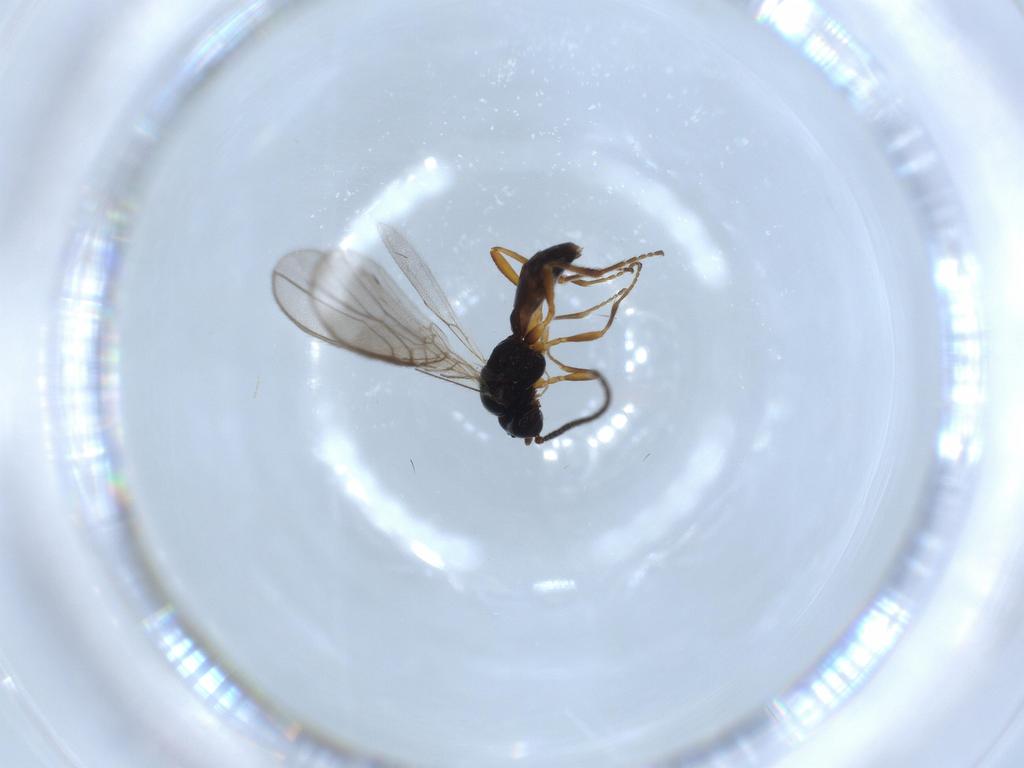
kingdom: Animalia
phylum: Arthropoda
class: Insecta
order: Hymenoptera
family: Braconidae
